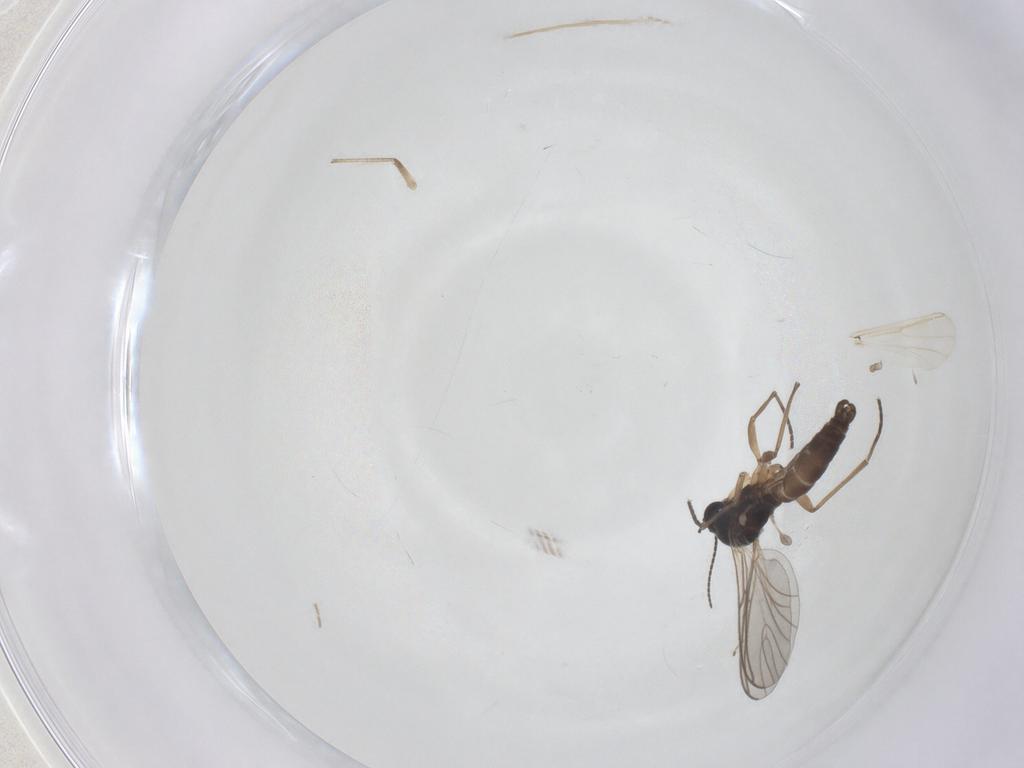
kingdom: Animalia
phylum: Arthropoda
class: Insecta
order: Diptera
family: Chironomidae
